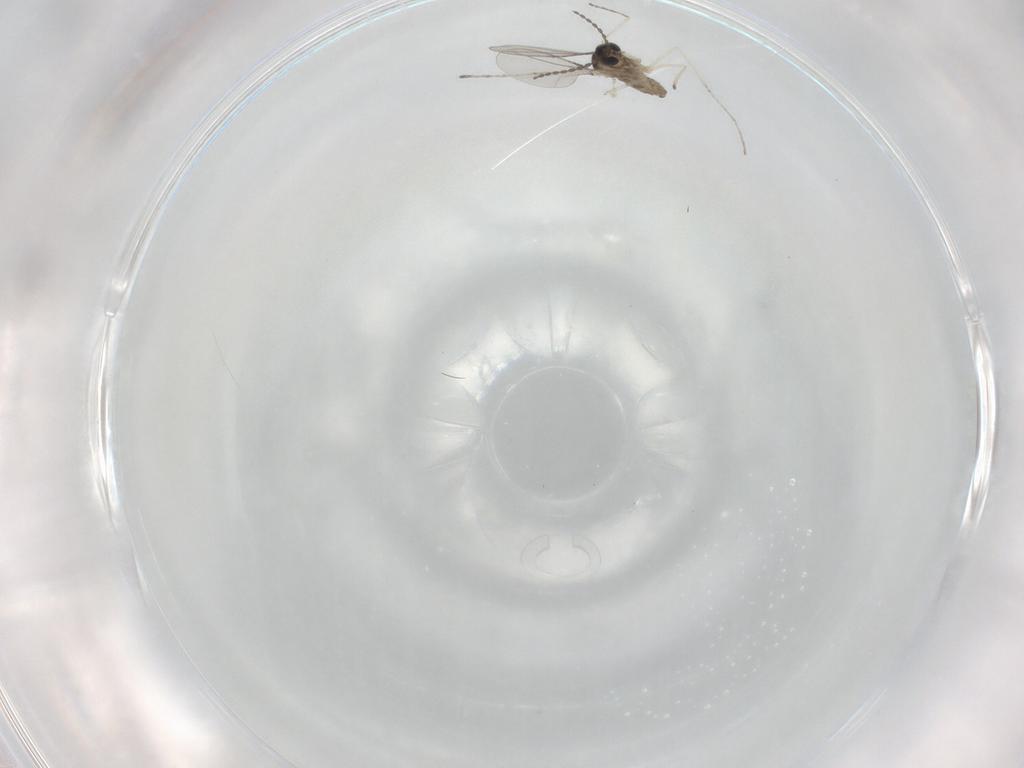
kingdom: Animalia
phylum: Arthropoda
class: Insecta
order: Diptera
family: Cecidomyiidae
